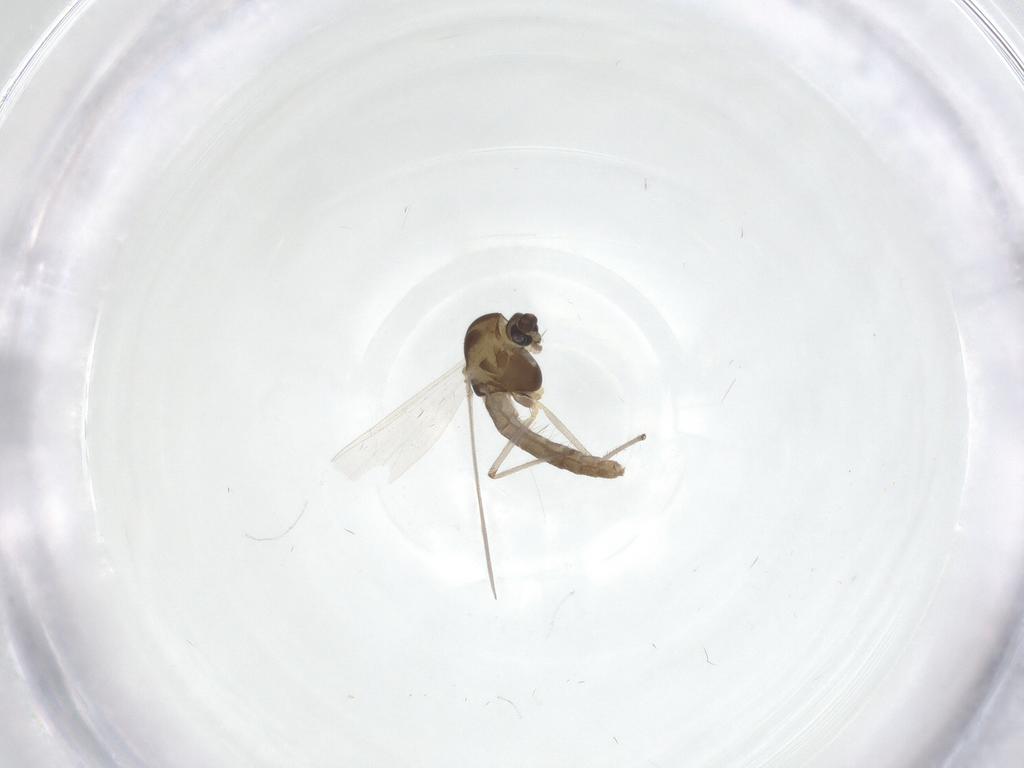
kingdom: Animalia
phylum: Arthropoda
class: Insecta
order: Diptera
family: Chironomidae
